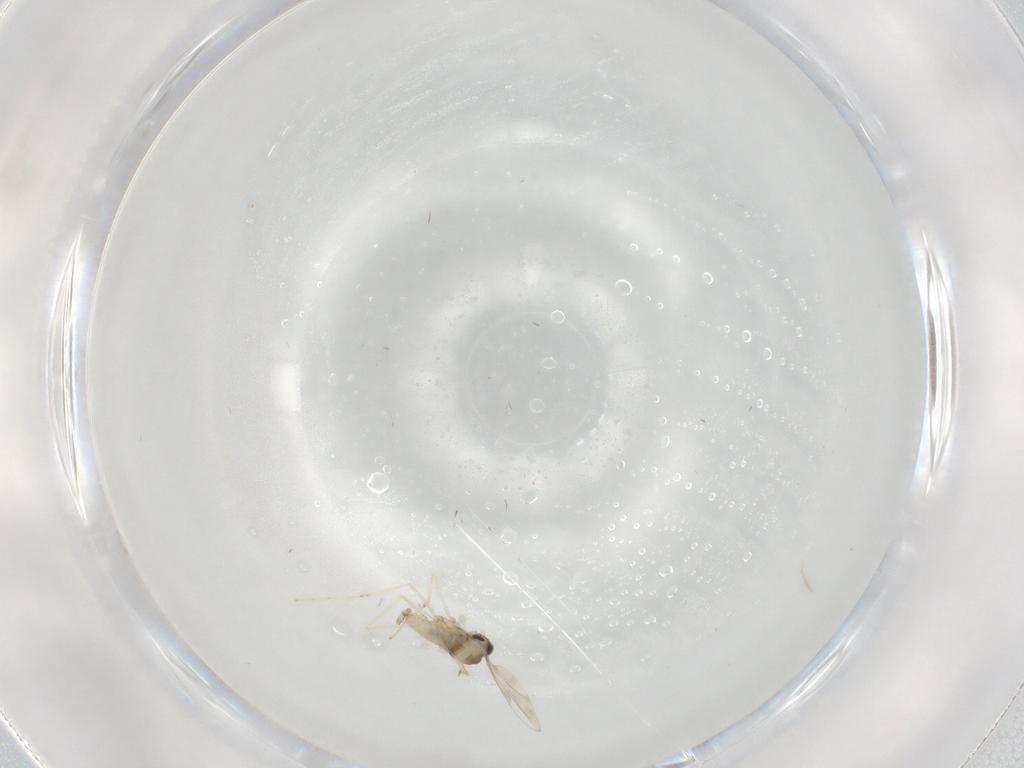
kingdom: Animalia
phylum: Arthropoda
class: Insecta
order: Diptera
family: Cecidomyiidae
